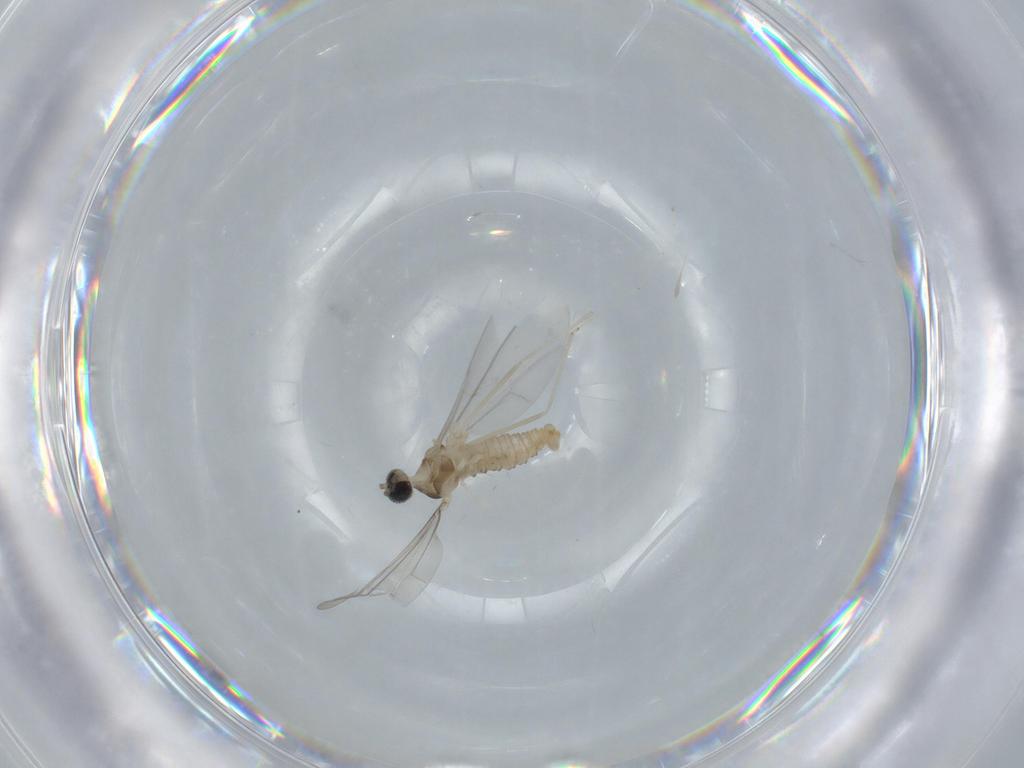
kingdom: Animalia
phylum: Arthropoda
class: Insecta
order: Diptera
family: Cecidomyiidae
